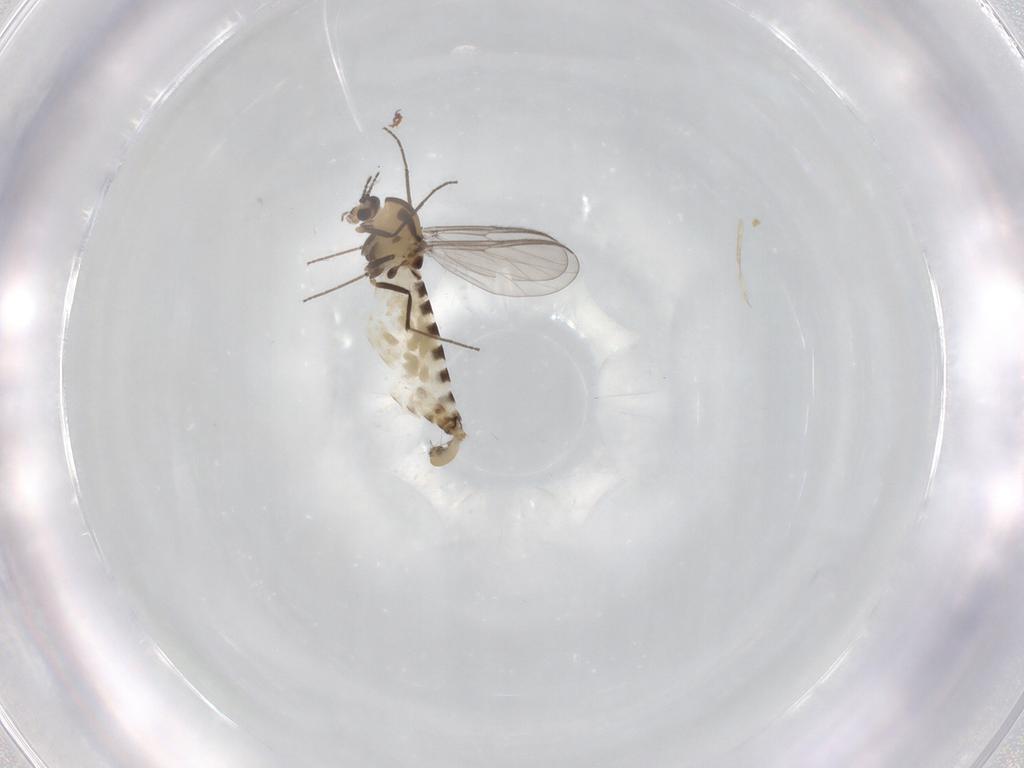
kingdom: Animalia
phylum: Arthropoda
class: Insecta
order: Diptera
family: Chironomidae
